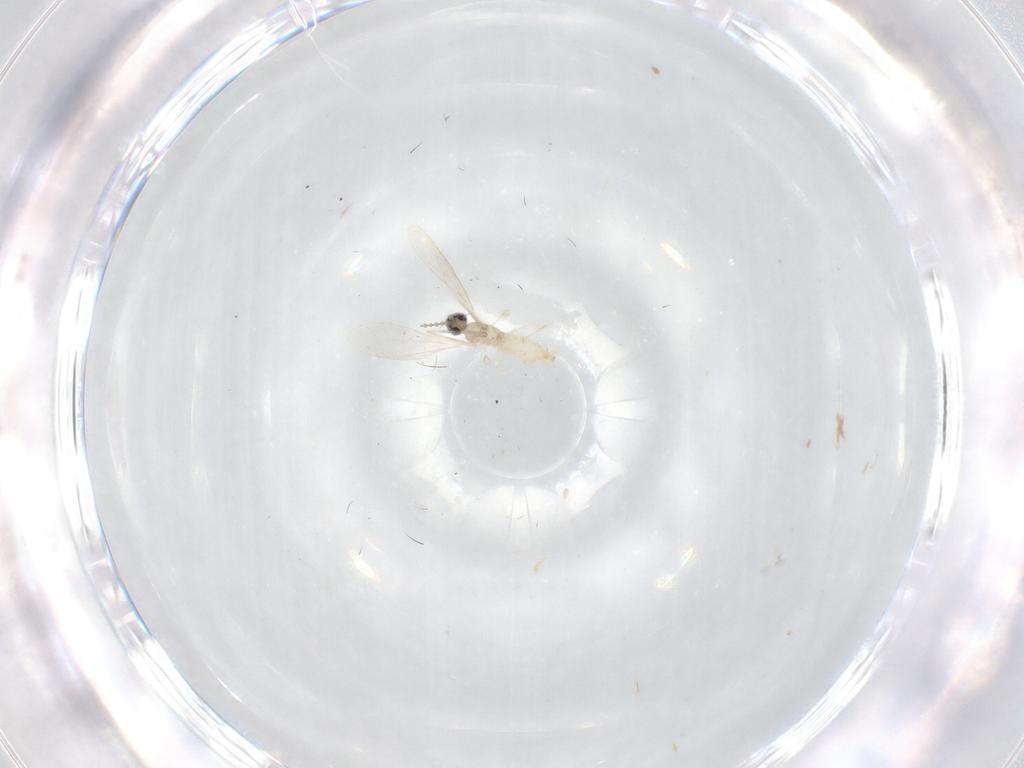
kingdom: Animalia
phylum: Arthropoda
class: Insecta
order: Diptera
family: Cecidomyiidae
